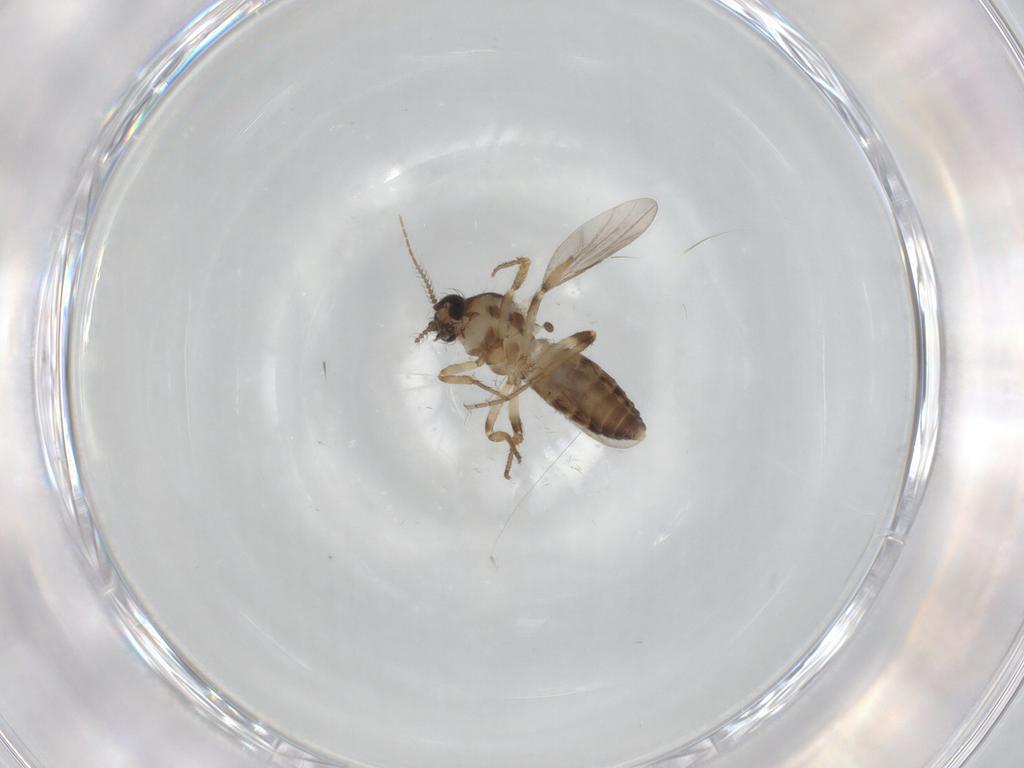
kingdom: Animalia
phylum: Arthropoda
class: Insecta
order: Diptera
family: Ceratopogonidae
